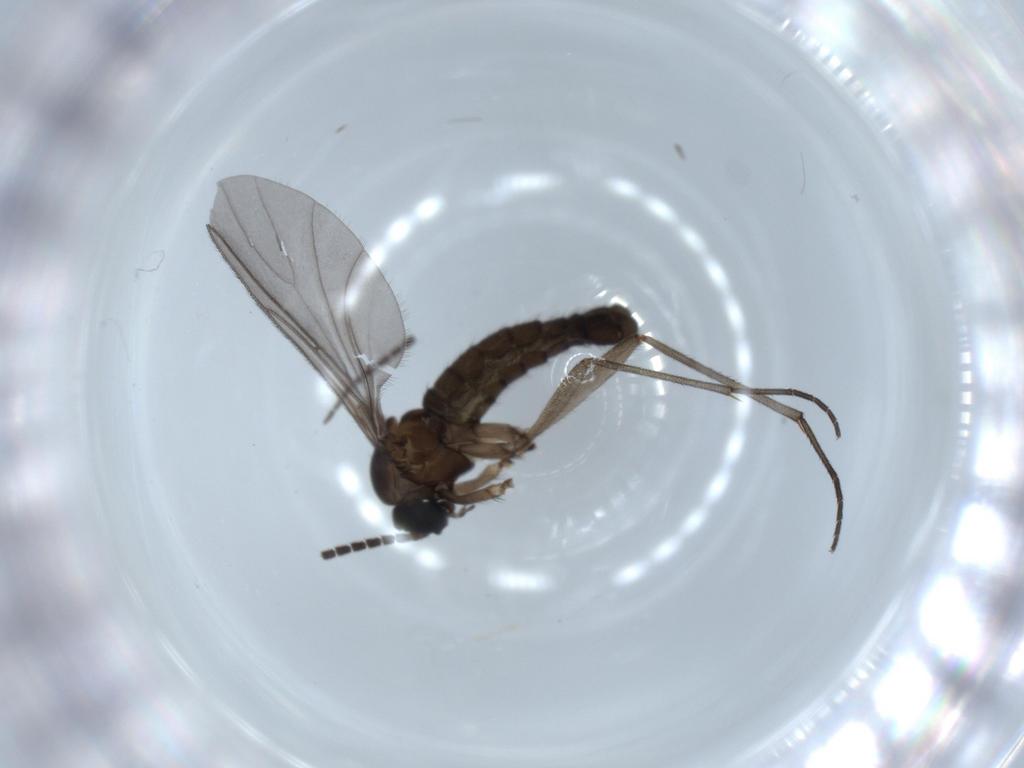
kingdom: Animalia
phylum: Arthropoda
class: Insecta
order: Diptera
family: Sciaridae
